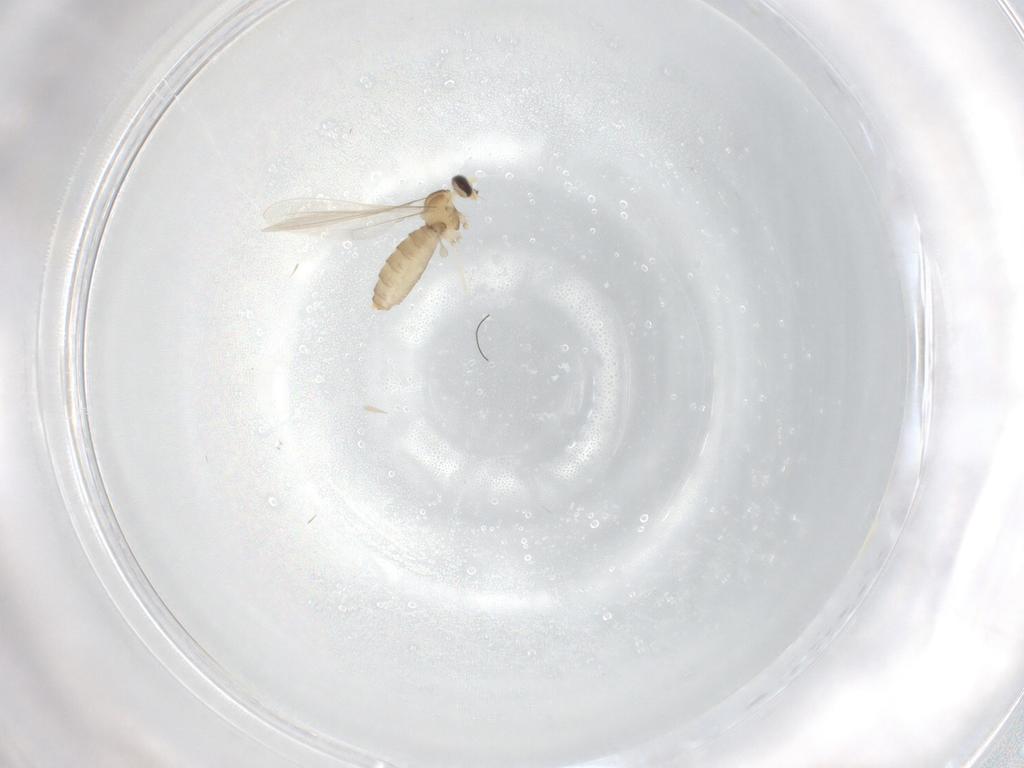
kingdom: Animalia
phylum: Arthropoda
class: Insecta
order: Diptera
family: Cecidomyiidae
